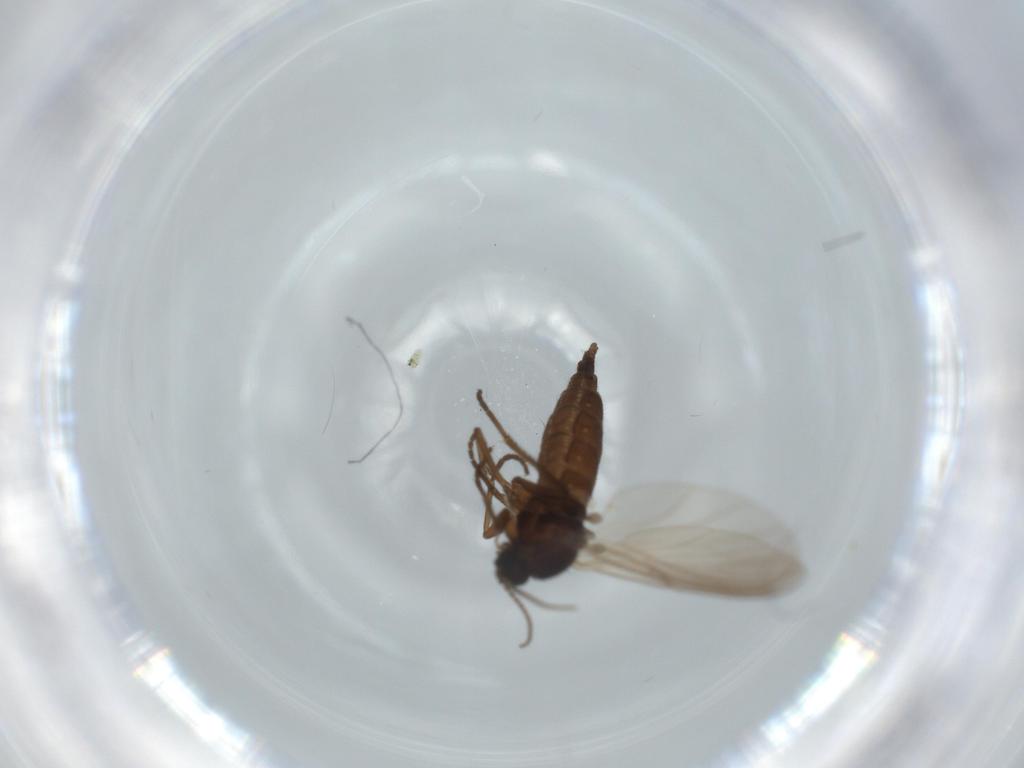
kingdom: Animalia
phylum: Arthropoda
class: Insecta
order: Diptera
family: Sciaridae
